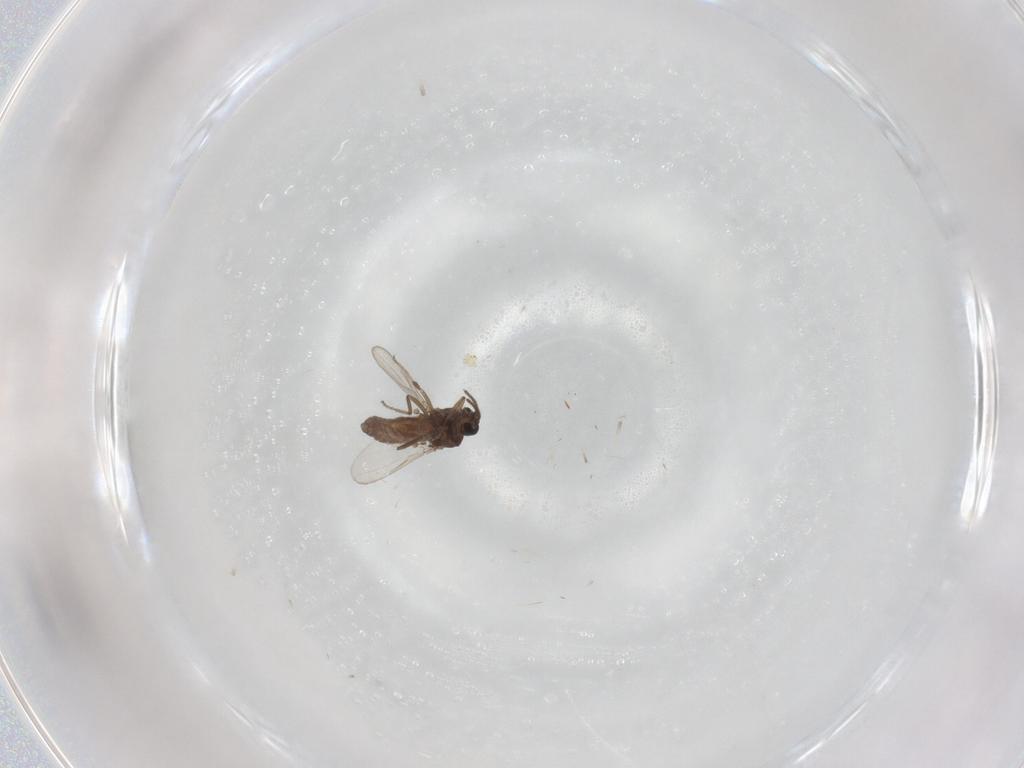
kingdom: Animalia
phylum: Arthropoda
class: Insecta
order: Diptera
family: Ceratopogonidae
